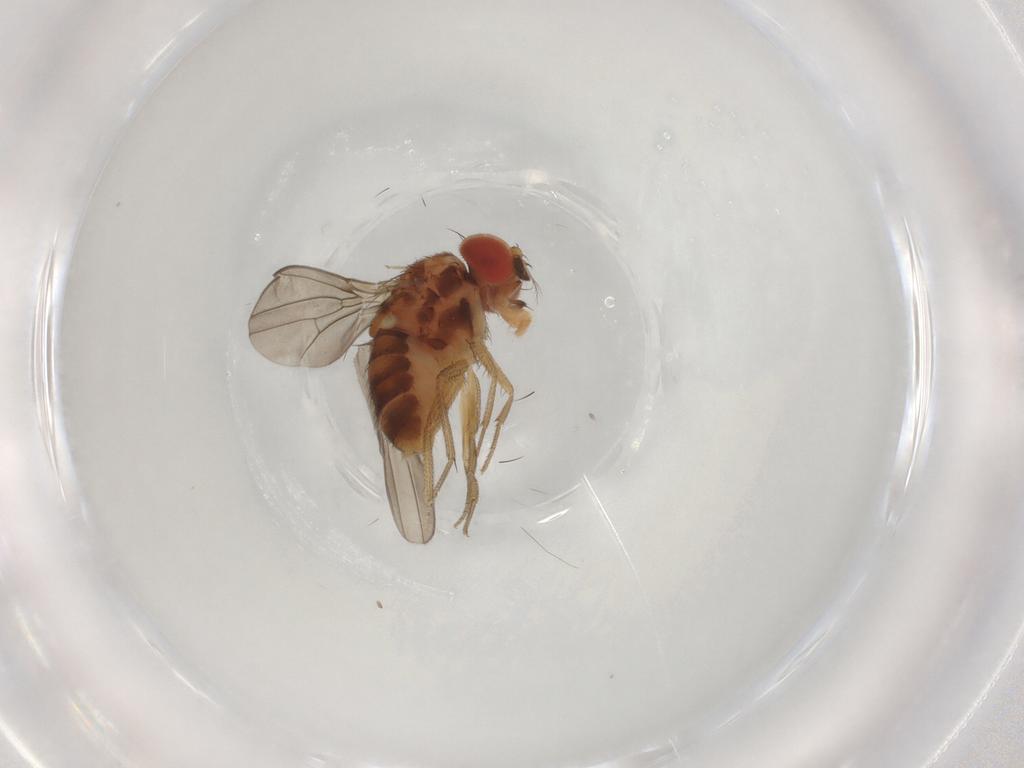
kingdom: Animalia
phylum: Arthropoda
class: Insecta
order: Diptera
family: Drosophilidae
